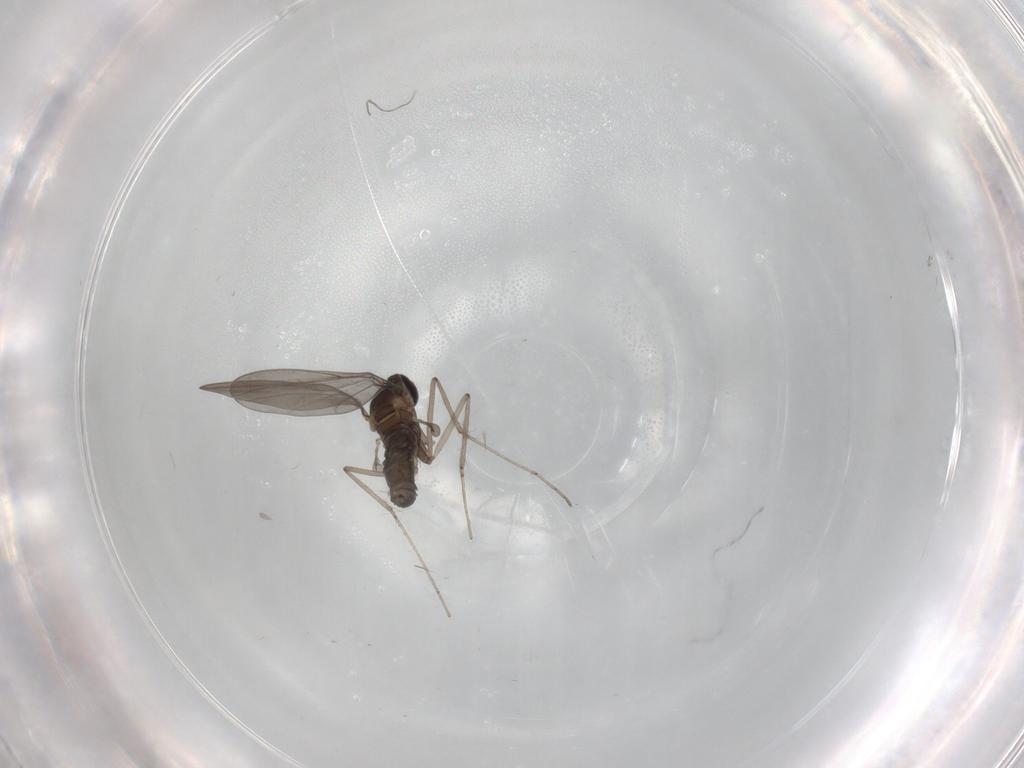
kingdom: Animalia
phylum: Arthropoda
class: Insecta
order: Diptera
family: Cecidomyiidae
